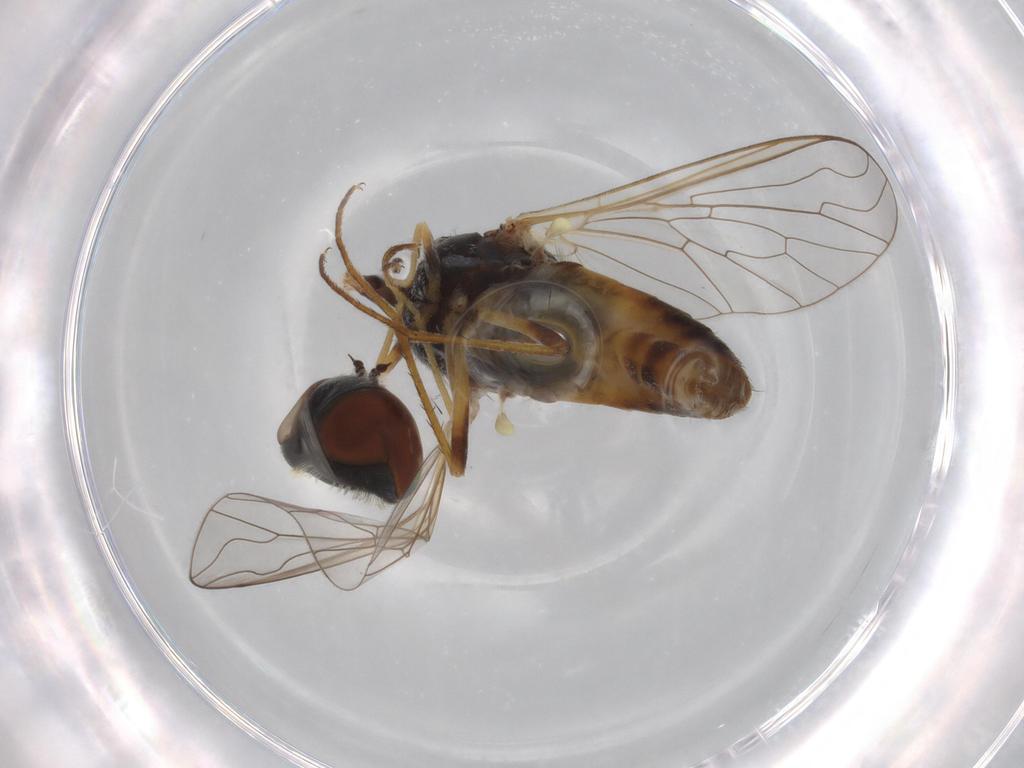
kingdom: Animalia
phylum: Arthropoda
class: Insecta
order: Diptera
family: Bombyliidae
